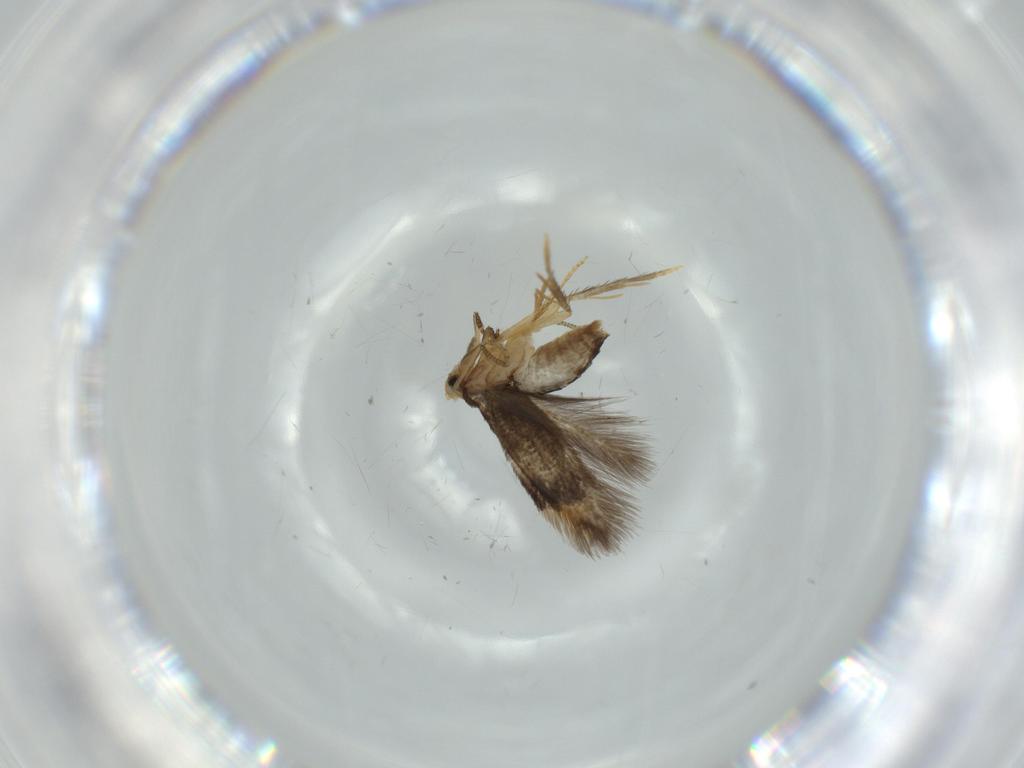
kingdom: Animalia
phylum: Arthropoda
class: Insecta
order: Lepidoptera
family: Nepticulidae
